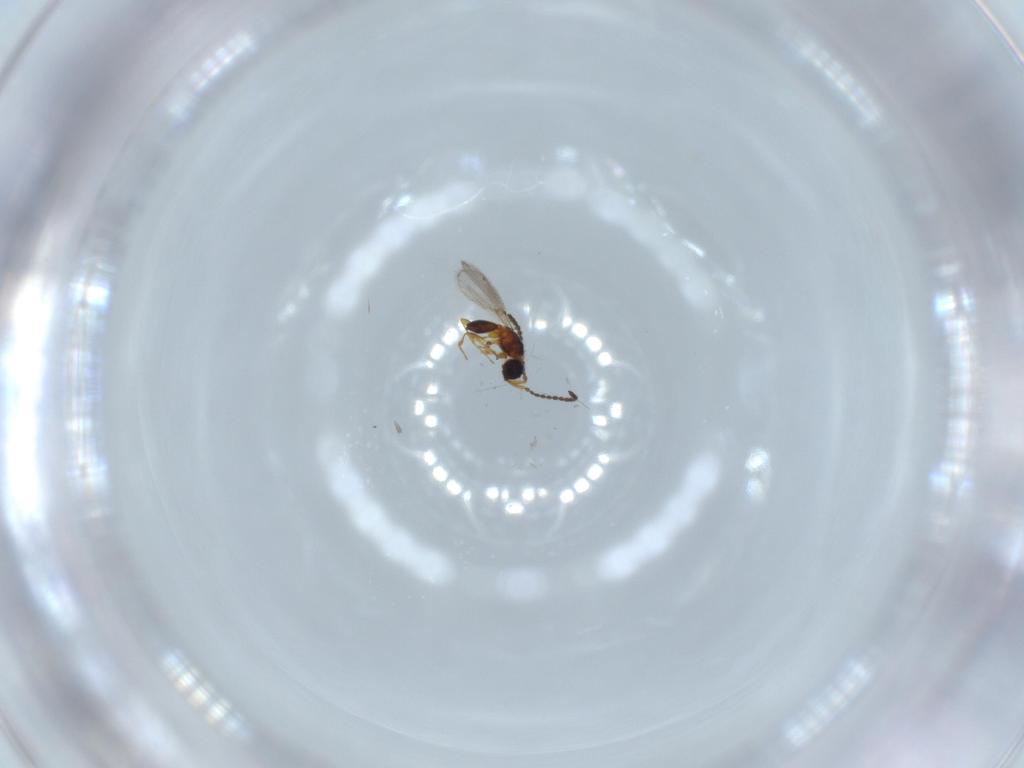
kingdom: Animalia
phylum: Arthropoda
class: Insecta
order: Hymenoptera
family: Diapriidae
